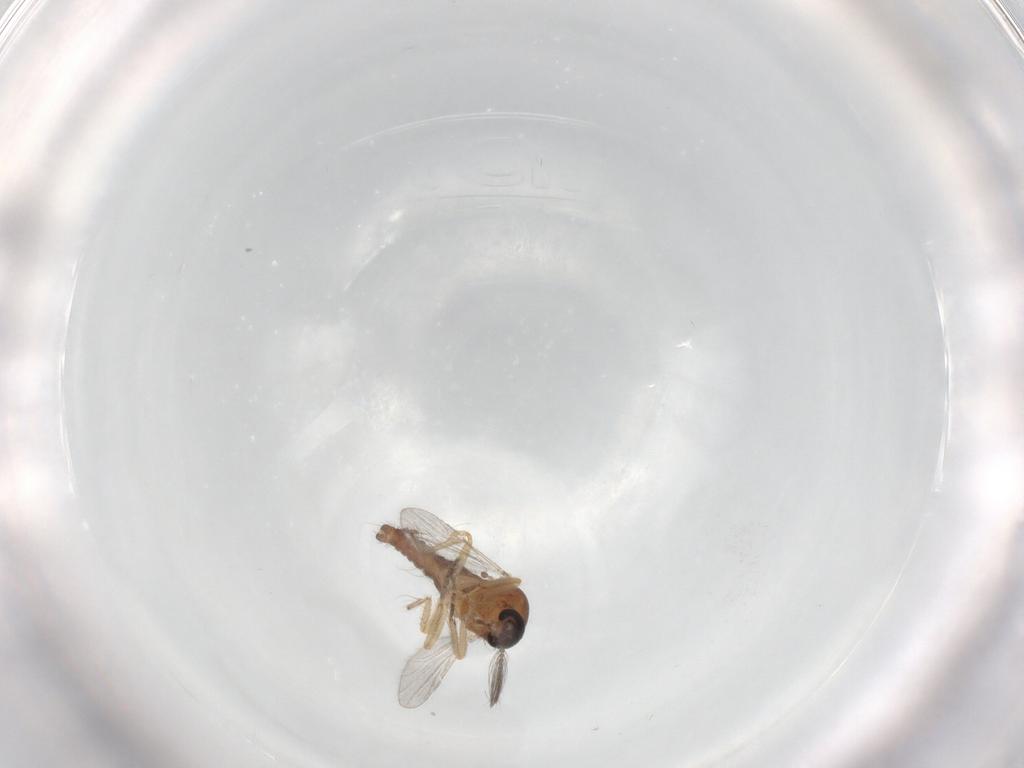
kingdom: Animalia
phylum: Arthropoda
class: Insecta
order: Diptera
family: Ceratopogonidae
